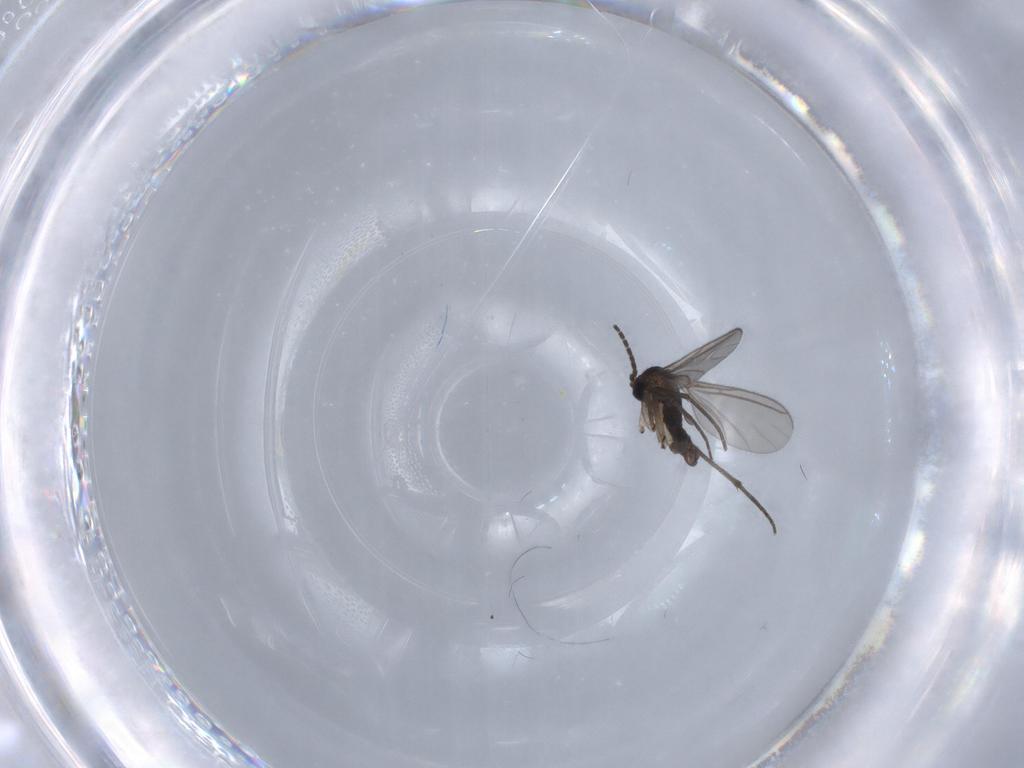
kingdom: Animalia
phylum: Arthropoda
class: Insecta
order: Diptera
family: Sciaridae
